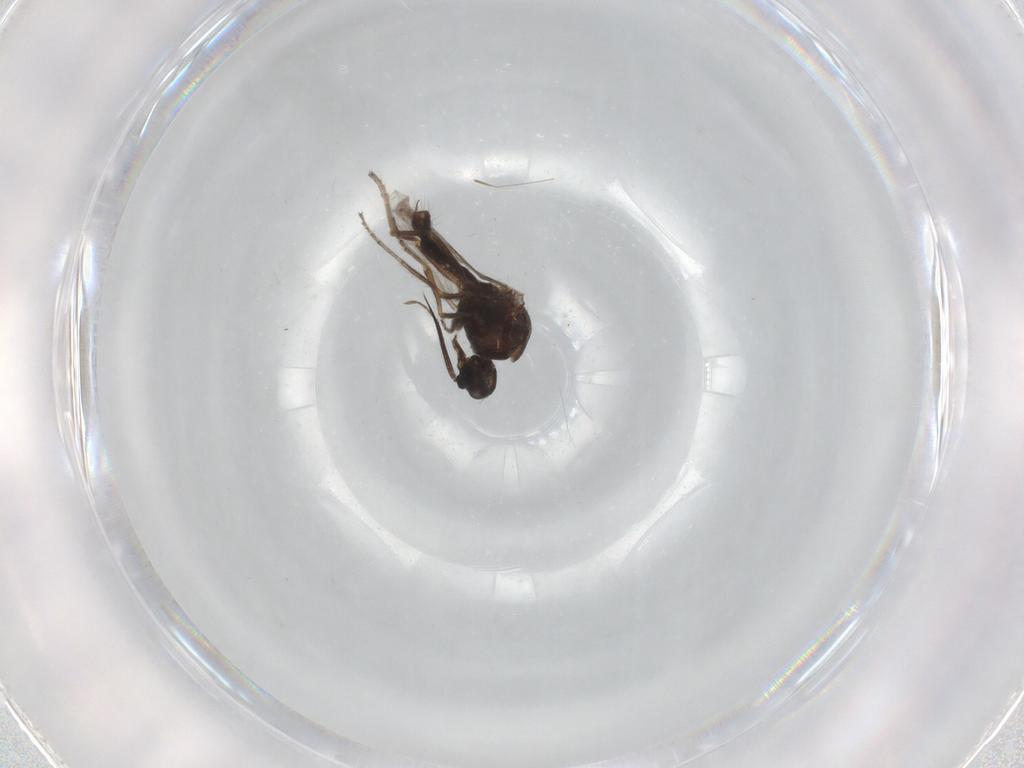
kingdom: Animalia
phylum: Arthropoda
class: Insecta
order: Diptera
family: Ceratopogonidae
